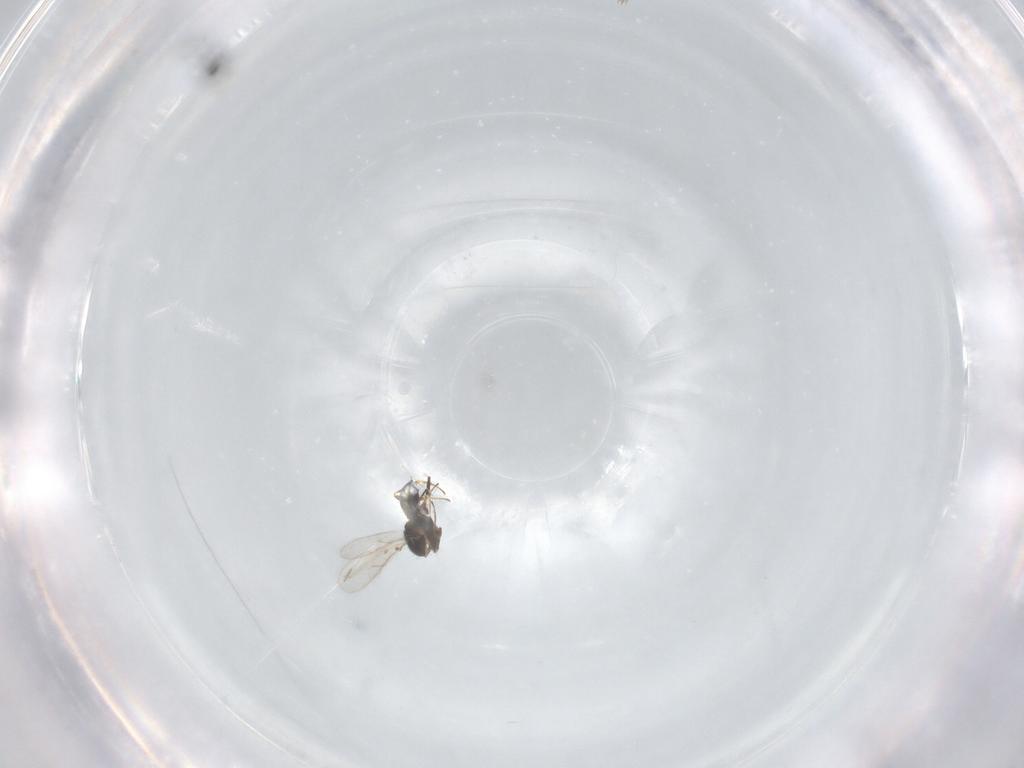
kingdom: Animalia
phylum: Arthropoda
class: Insecta
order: Hymenoptera
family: Scelionidae
